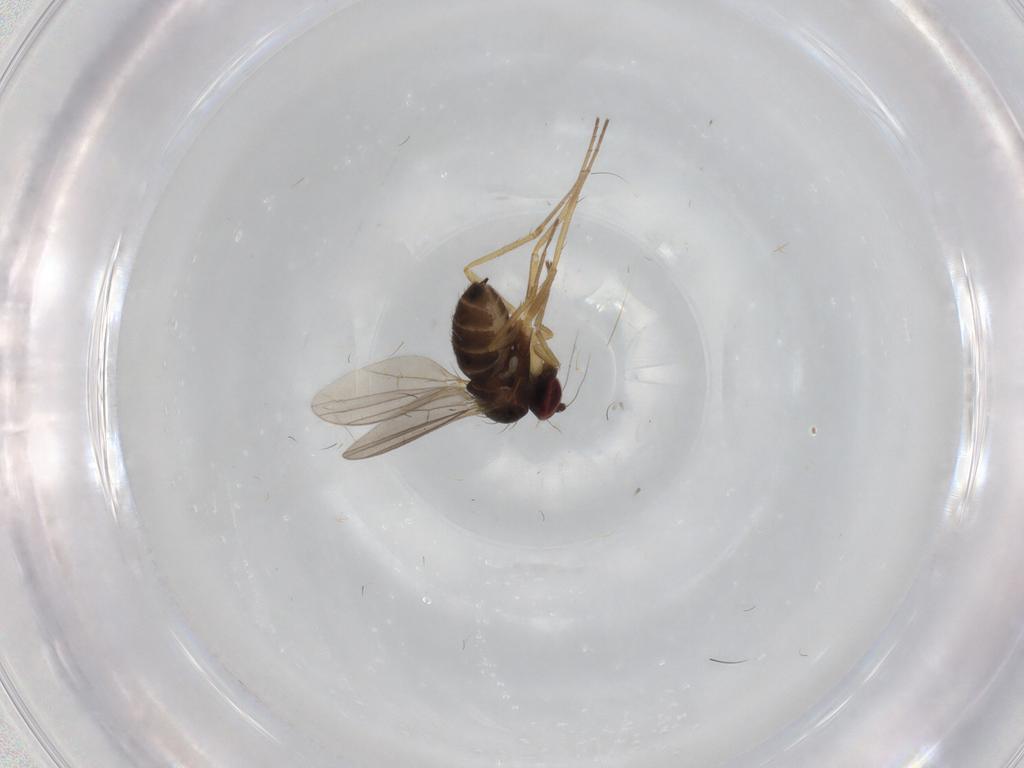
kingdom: Animalia
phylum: Arthropoda
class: Insecta
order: Diptera
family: Dolichopodidae
